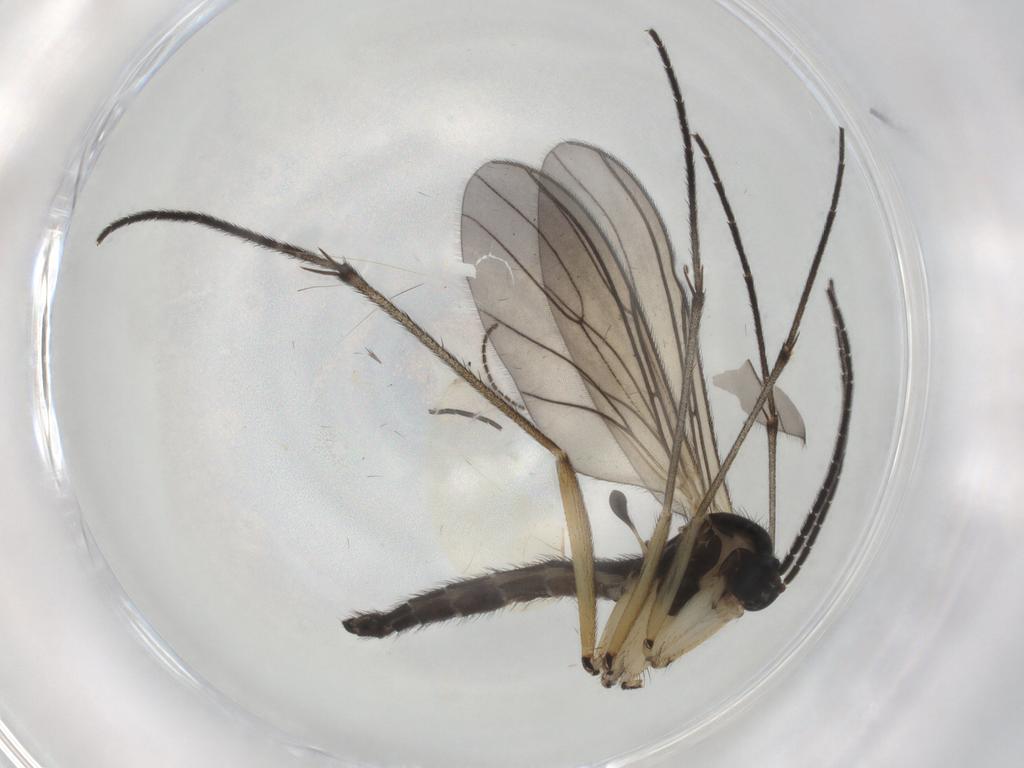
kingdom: Animalia
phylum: Arthropoda
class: Insecta
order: Diptera
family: Sciaridae
